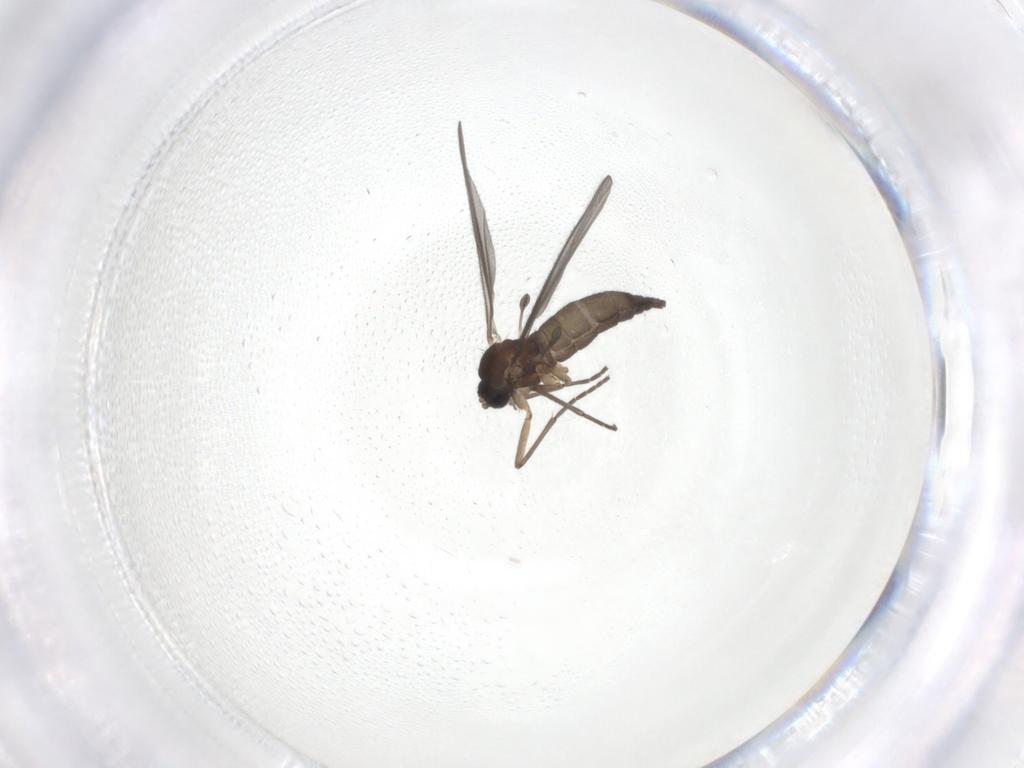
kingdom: Animalia
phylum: Arthropoda
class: Insecta
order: Diptera
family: Sciaridae
